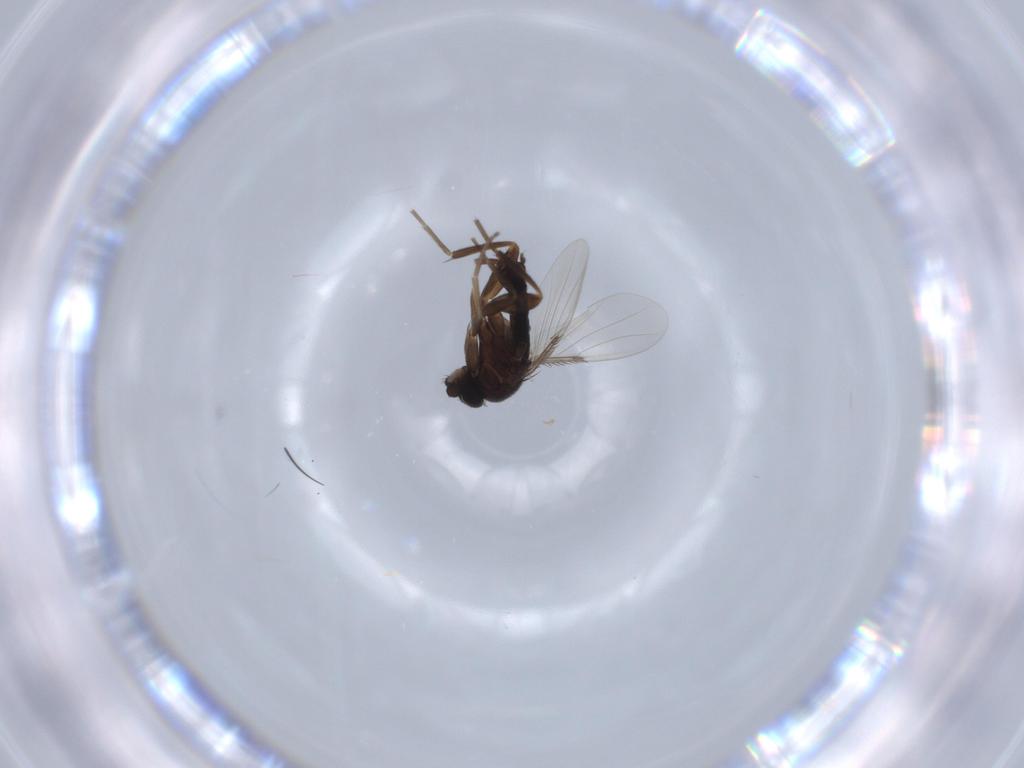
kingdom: Animalia
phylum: Arthropoda
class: Insecta
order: Diptera
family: Phoridae
